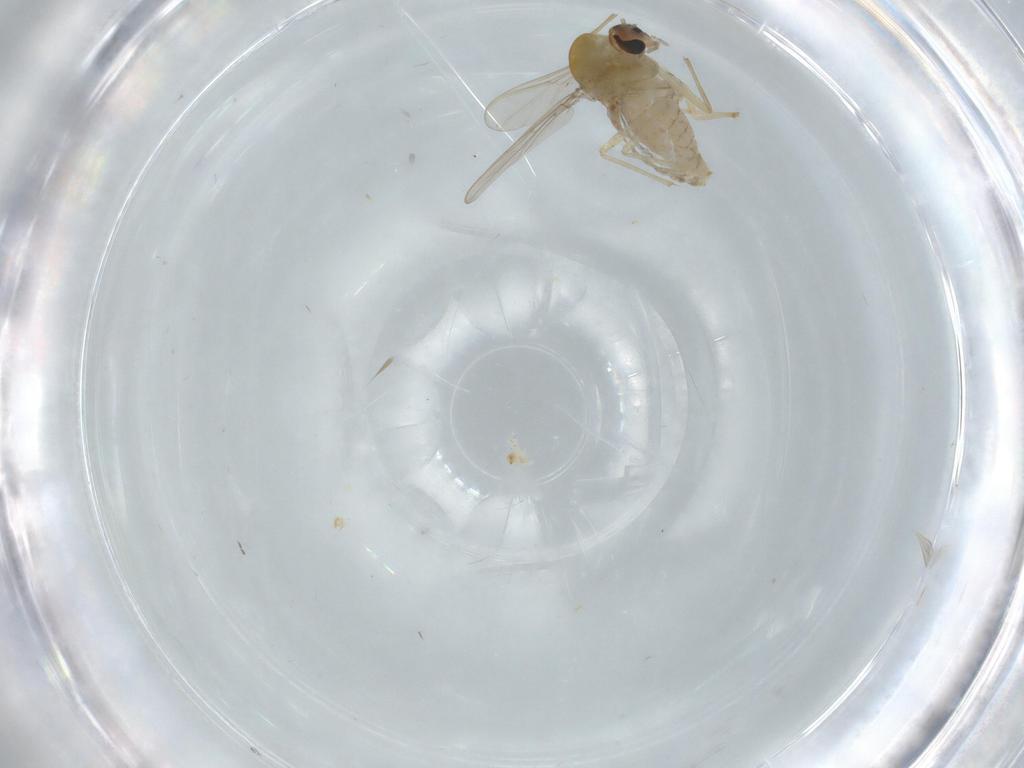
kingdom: Animalia
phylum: Arthropoda
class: Insecta
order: Diptera
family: Chironomidae
